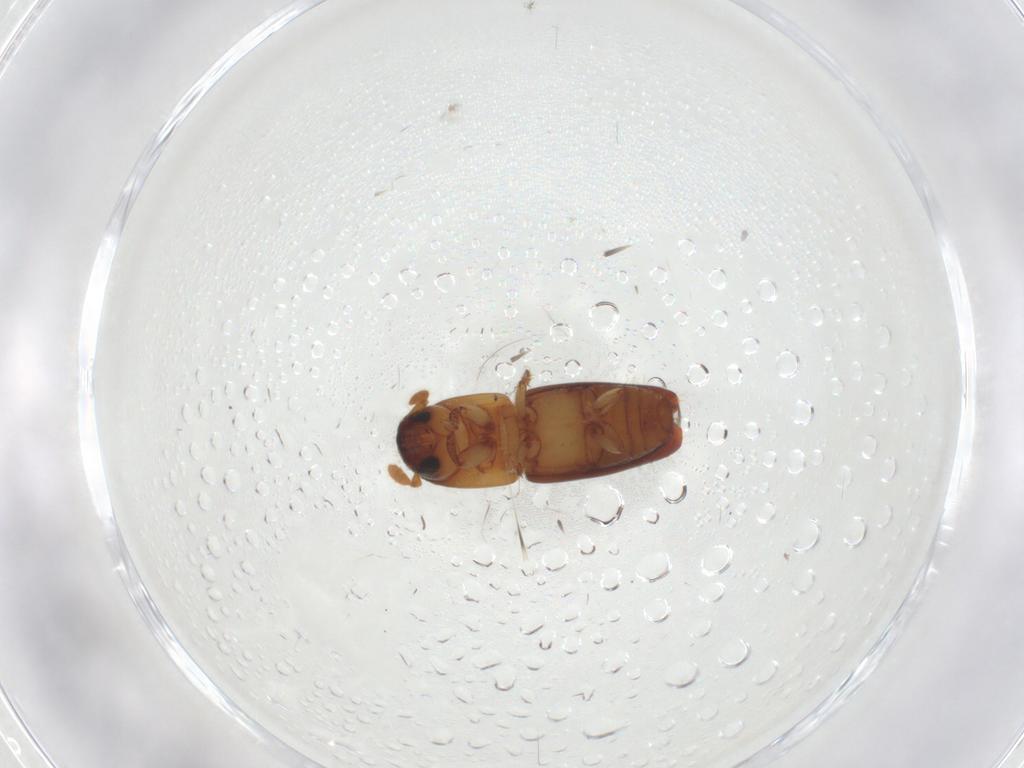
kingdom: Animalia
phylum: Arthropoda
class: Insecta
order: Coleoptera
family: Curculionidae
